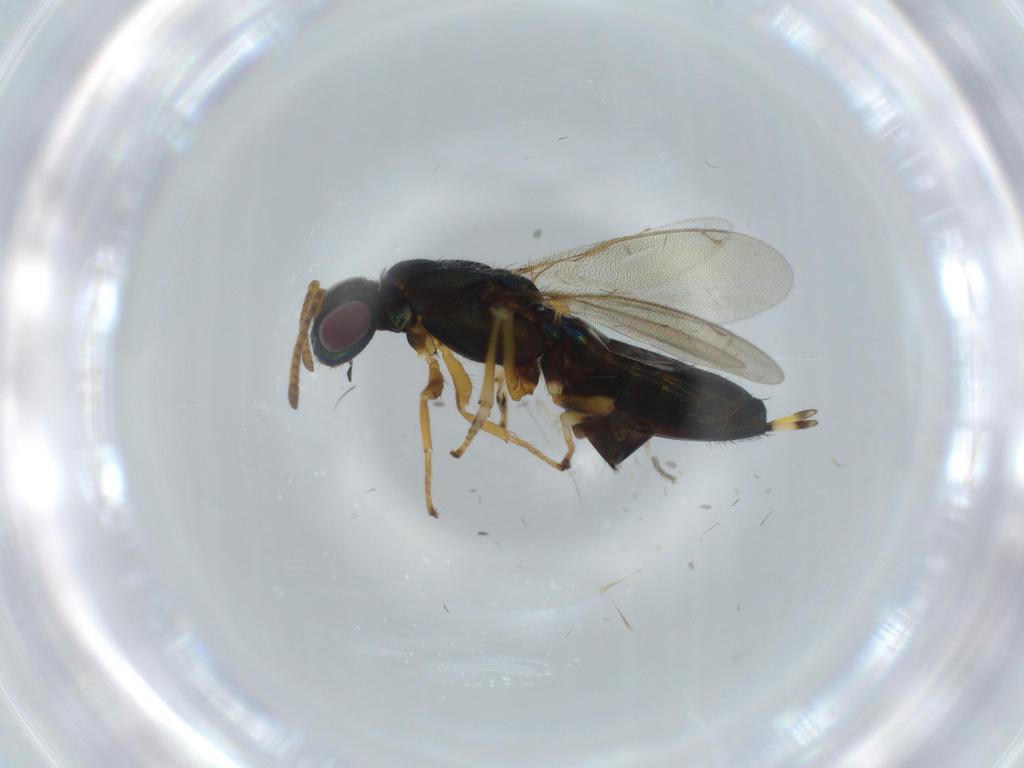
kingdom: Animalia
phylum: Arthropoda
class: Insecta
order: Hymenoptera
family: Eupelmidae
